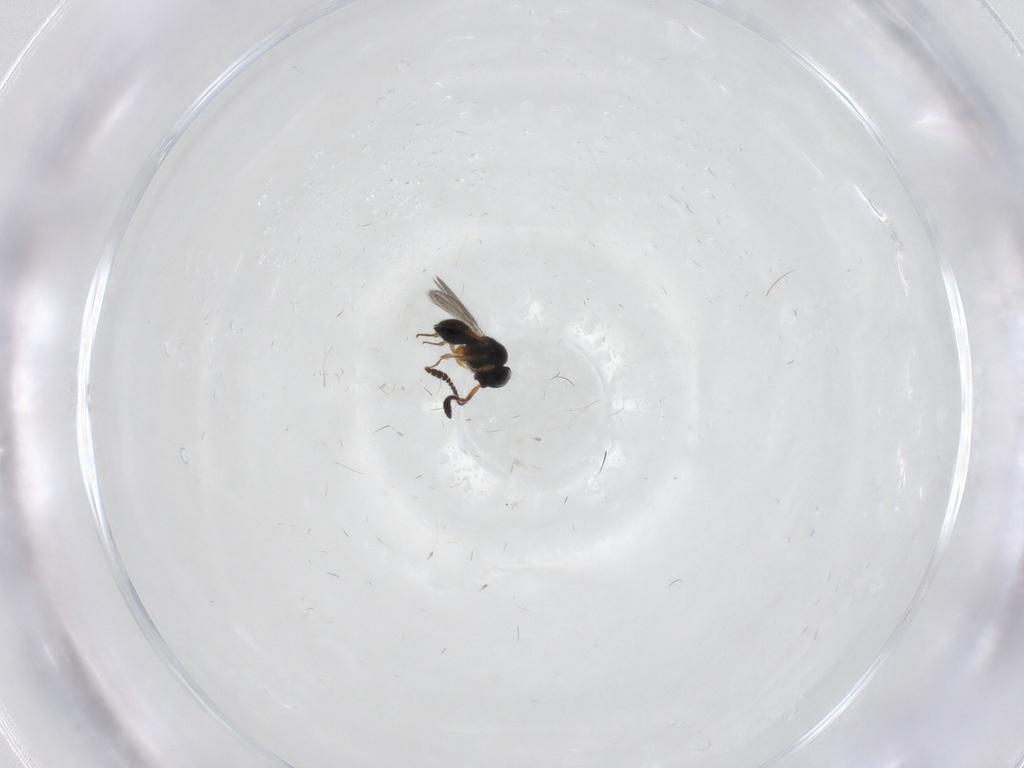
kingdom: Animalia
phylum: Arthropoda
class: Insecta
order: Hymenoptera
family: Scelionidae
